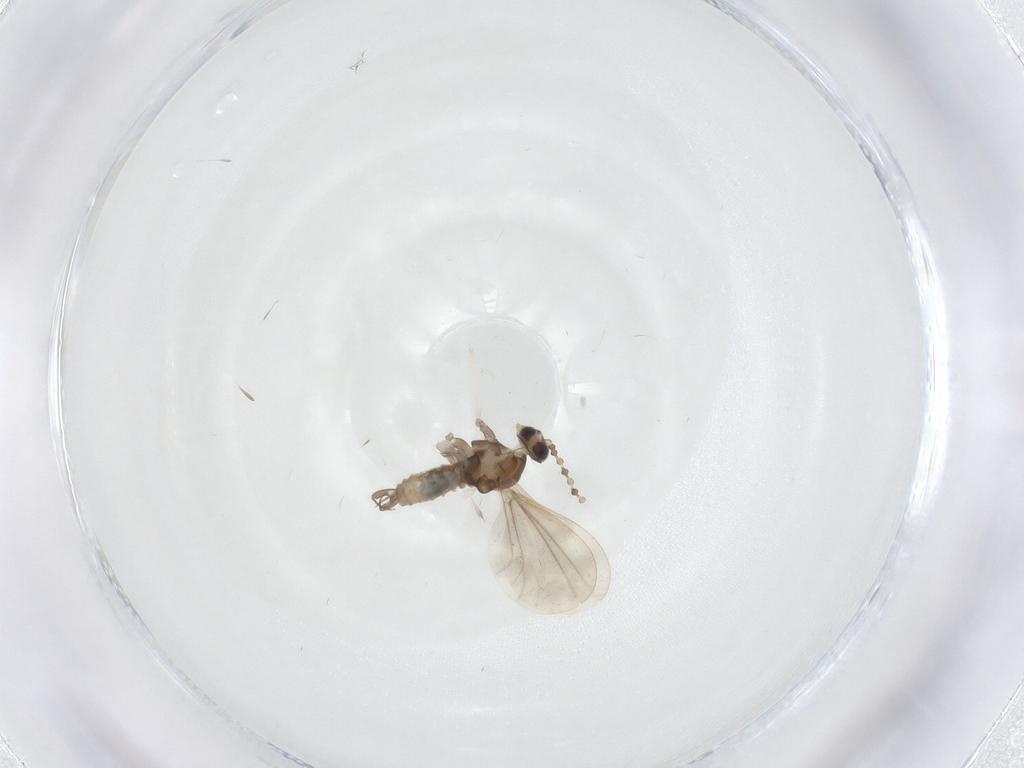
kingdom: Animalia
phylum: Arthropoda
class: Insecta
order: Diptera
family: Cecidomyiidae
